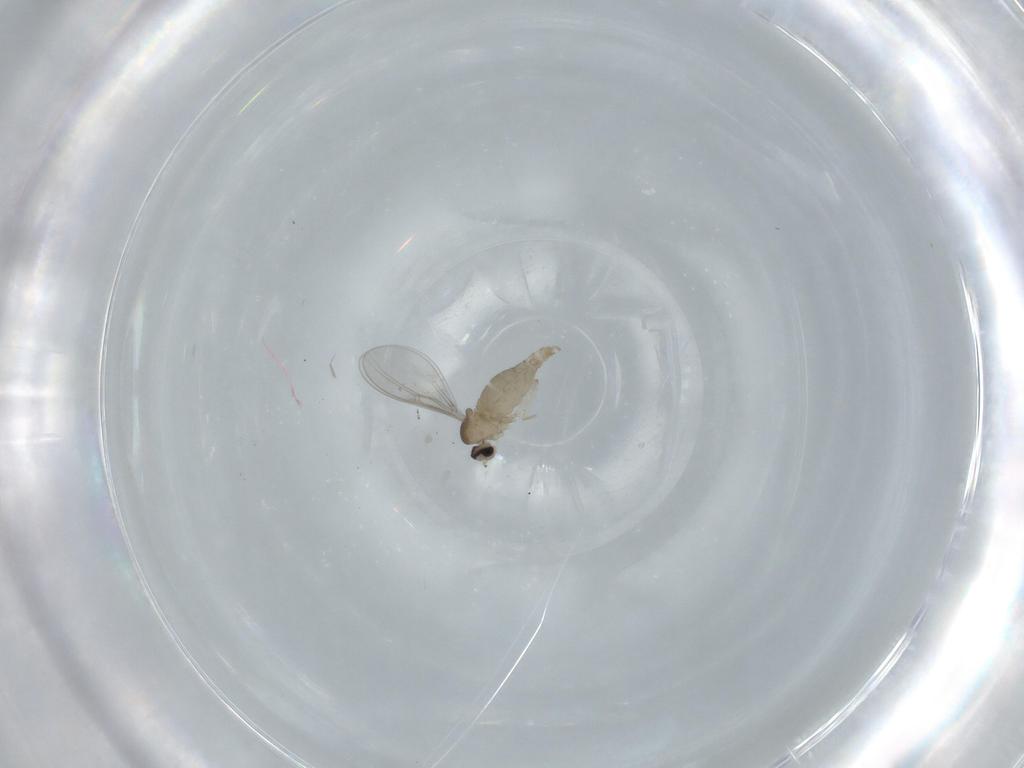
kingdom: Animalia
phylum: Arthropoda
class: Insecta
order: Diptera
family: Cecidomyiidae
